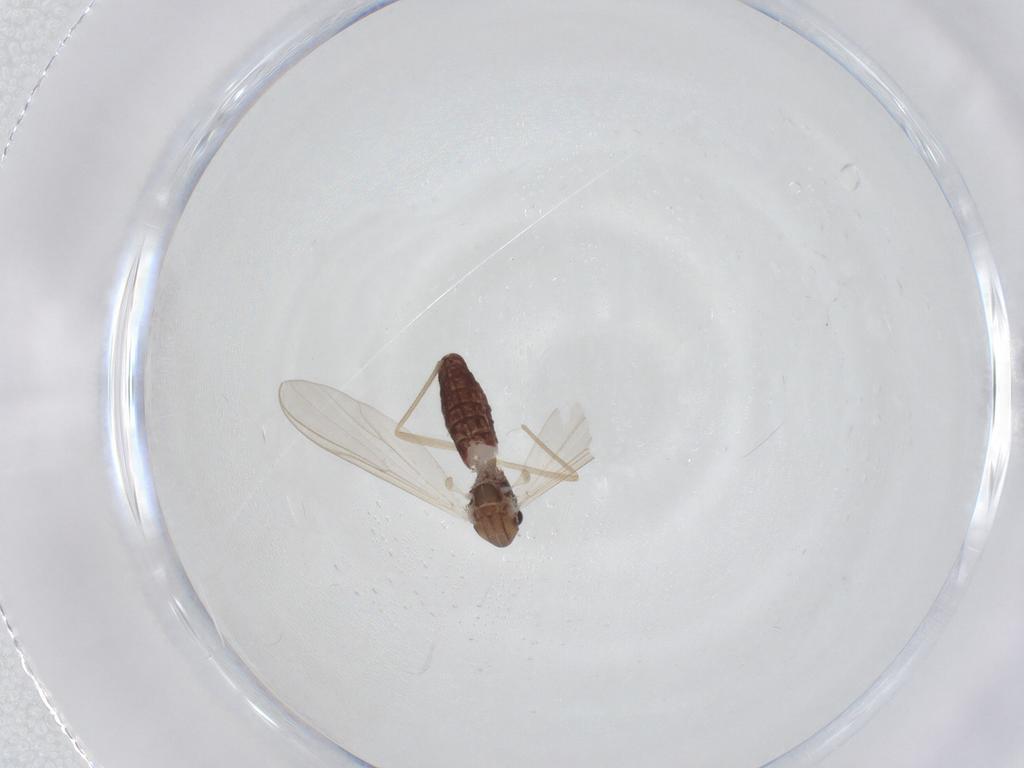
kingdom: Animalia
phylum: Arthropoda
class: Insecta
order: Diptera
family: Chironomidae
